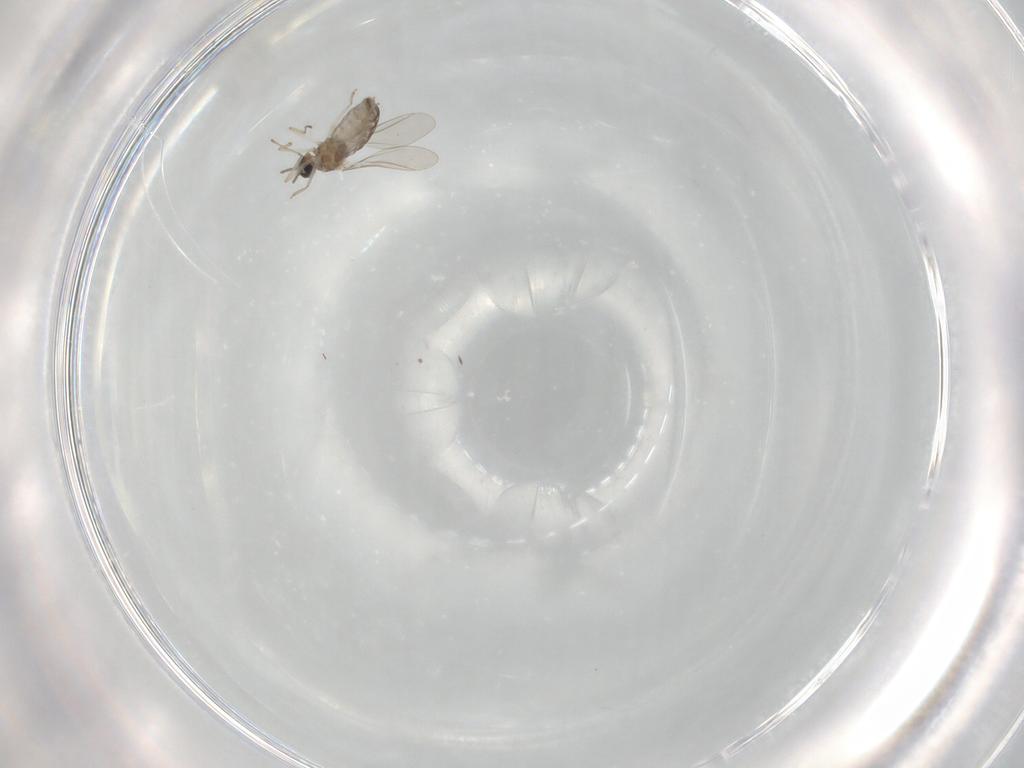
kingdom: Animalia
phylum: Arthropoda
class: Insecta
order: Diptera
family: Cecidomyiidae
